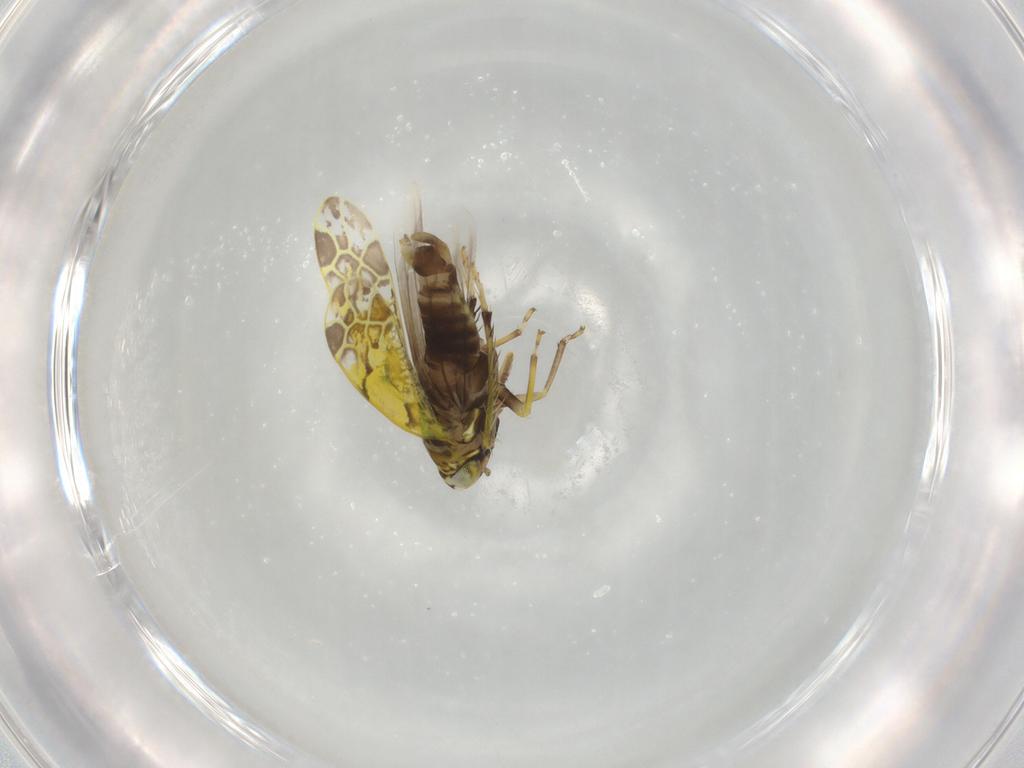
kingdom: Animalia
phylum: Arthropoda
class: Insecta
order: Hemiptera
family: Cicadellidae
